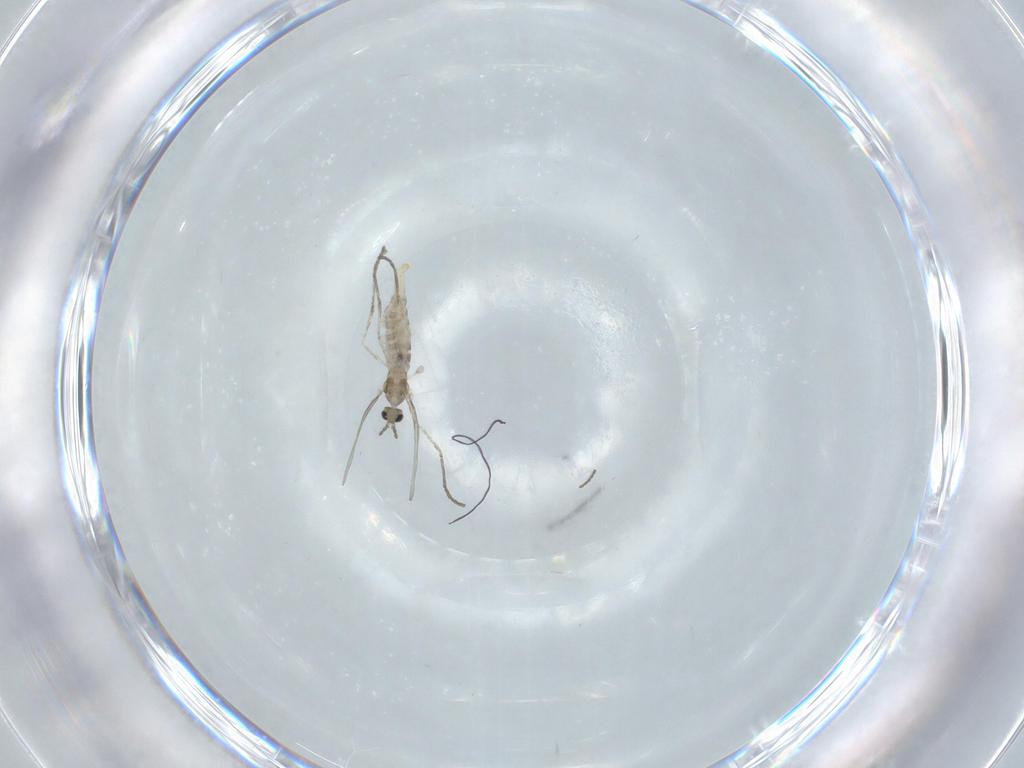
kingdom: Animalia
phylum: Arthropoda
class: Insecta
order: Diptera
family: Cecidomyiidae
